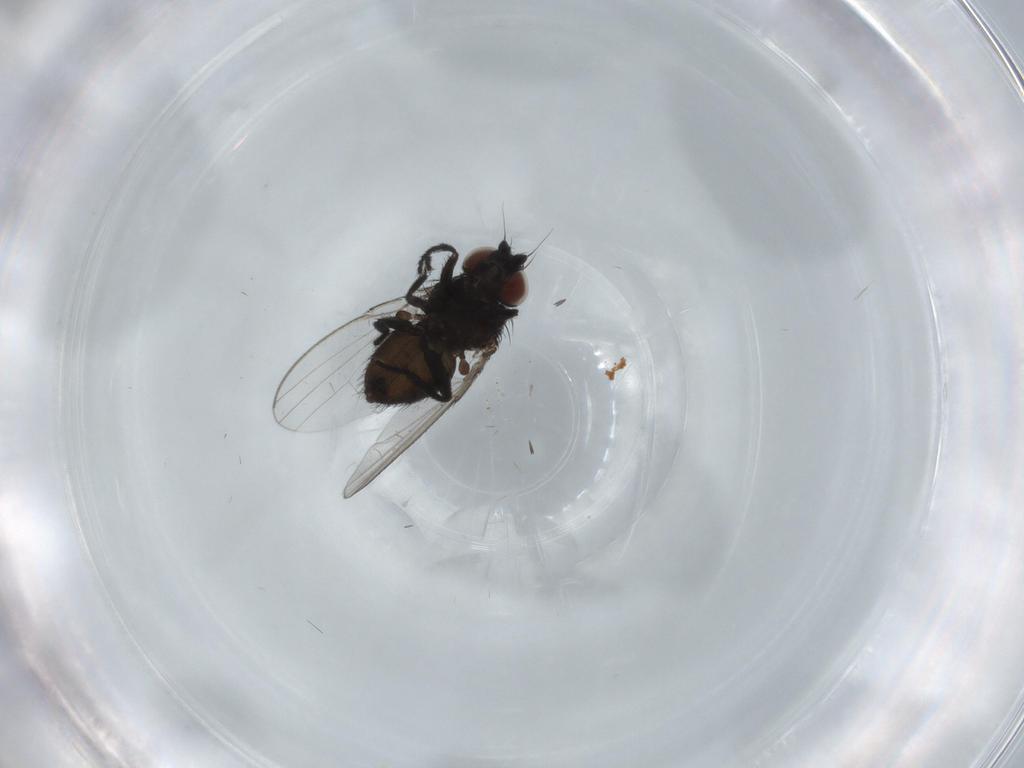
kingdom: Animalia
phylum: Arthropoda
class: Insecta
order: Diptera
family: Milichiidae
